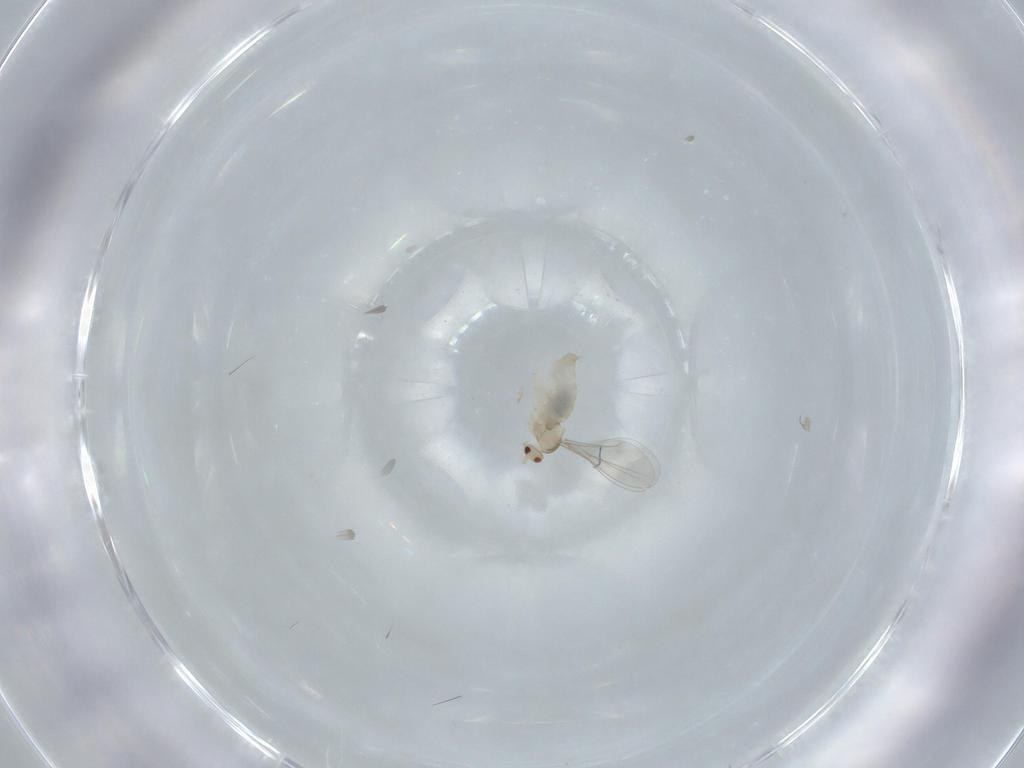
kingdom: Animalia
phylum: Arthropoda
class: Insecta
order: Diptera
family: Cecidomyiidae
